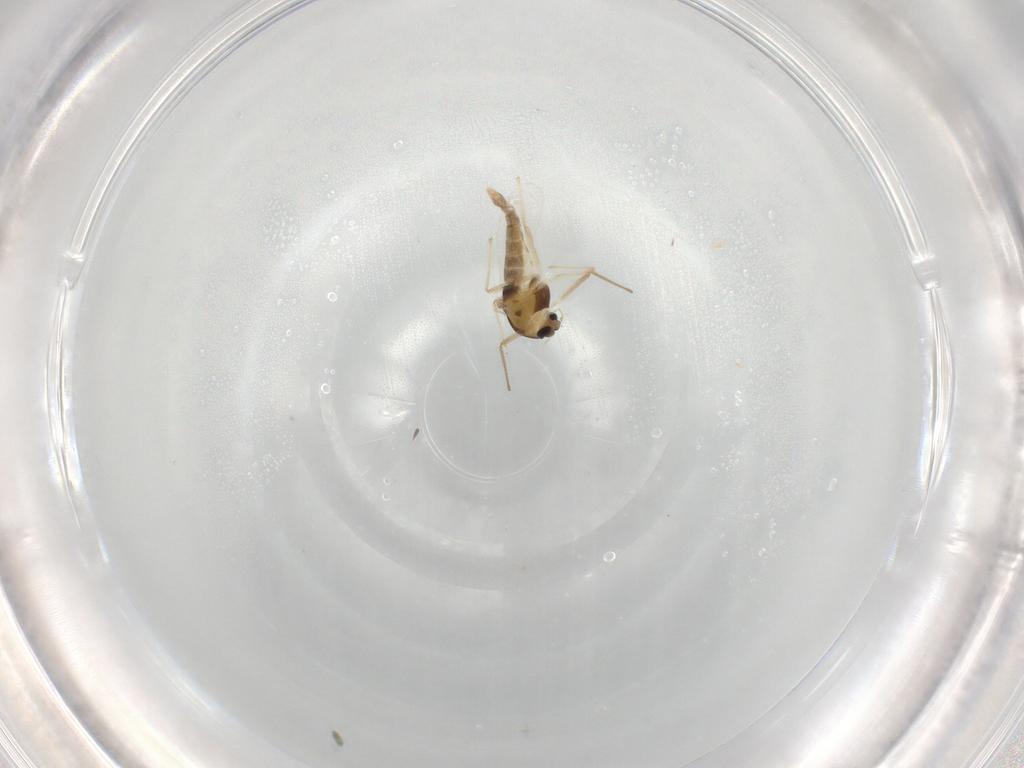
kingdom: Animalia
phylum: Arthropoda
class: Insecta
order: Diptera
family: Chironomidae
